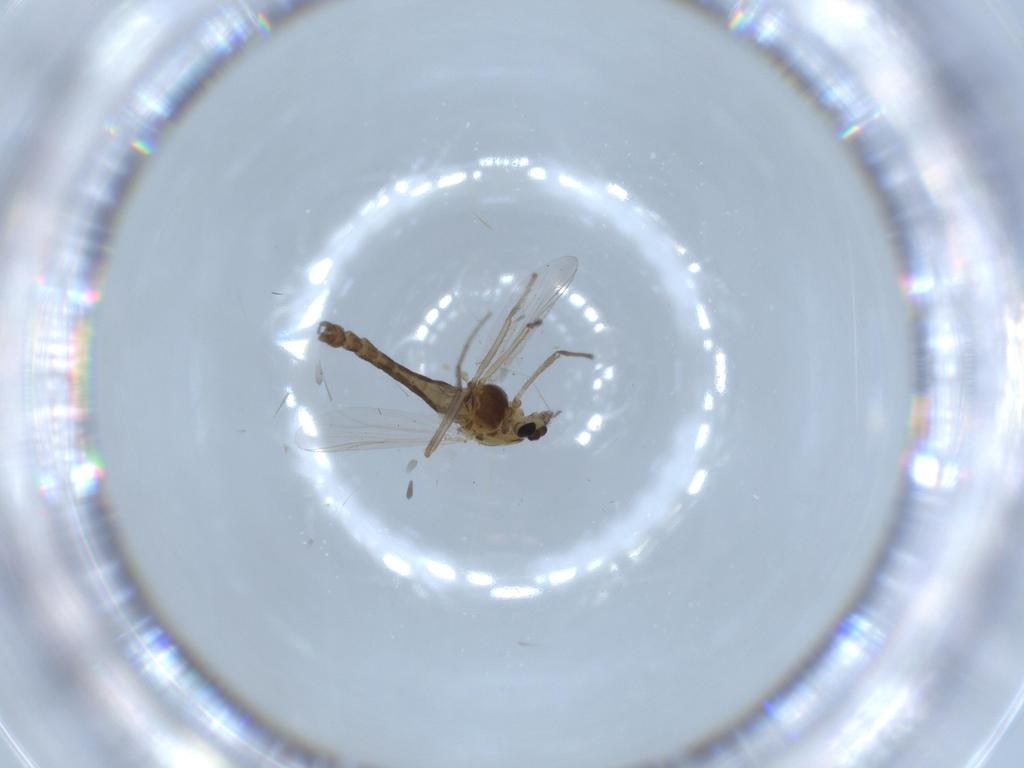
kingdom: Animalia
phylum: Arthropoda
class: Insecta
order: Diptera
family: Chironomidae
